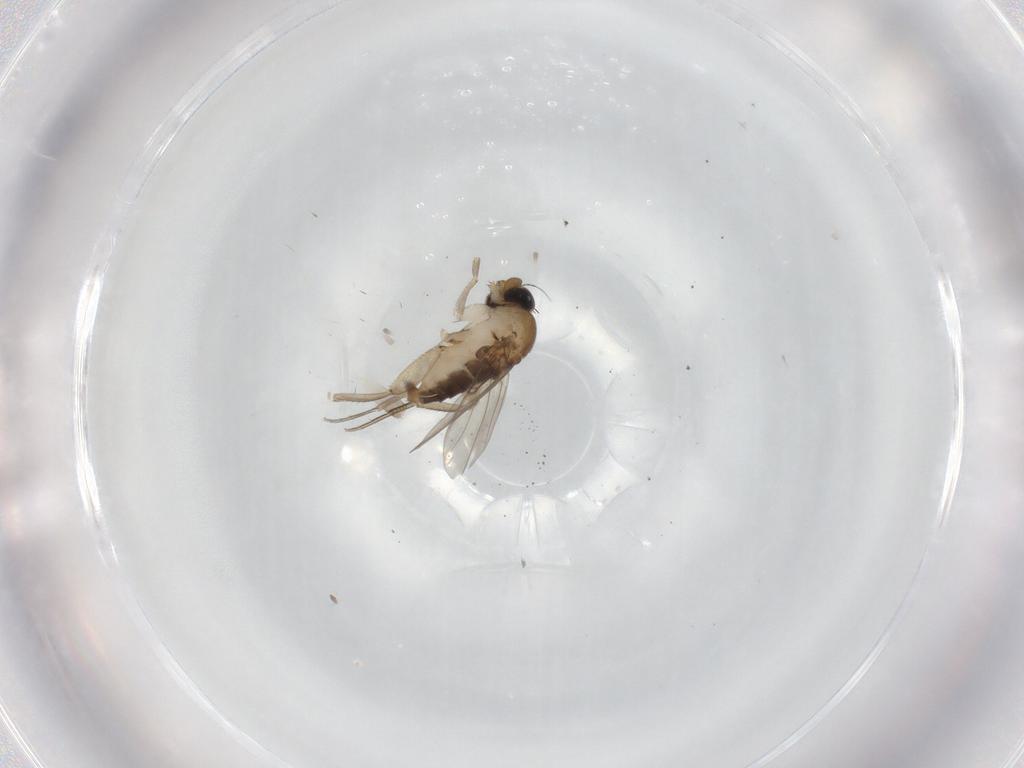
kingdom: Animalia
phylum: Arthropoda
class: Insecta
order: Diptera
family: Phoridae
